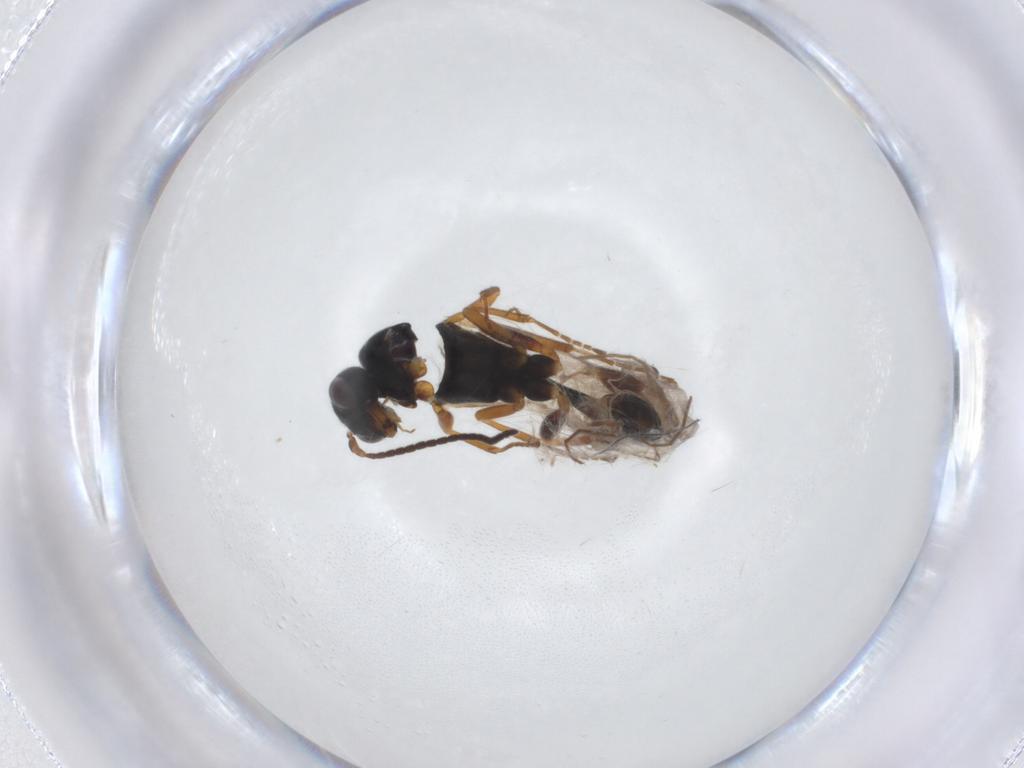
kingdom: Animalia
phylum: Arthropoda
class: Insecta
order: Hymenoptera
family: Ichneumonidae
